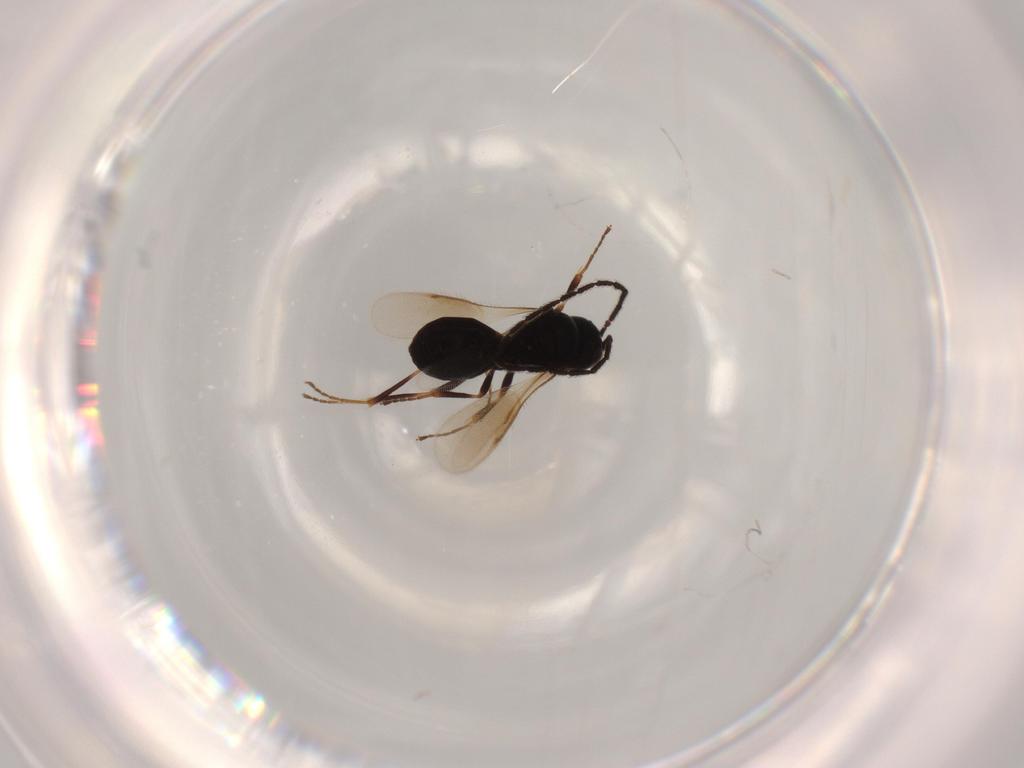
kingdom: Animalia
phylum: Arthropoda
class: Insecta
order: Hymenoptera
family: Scelionidae
